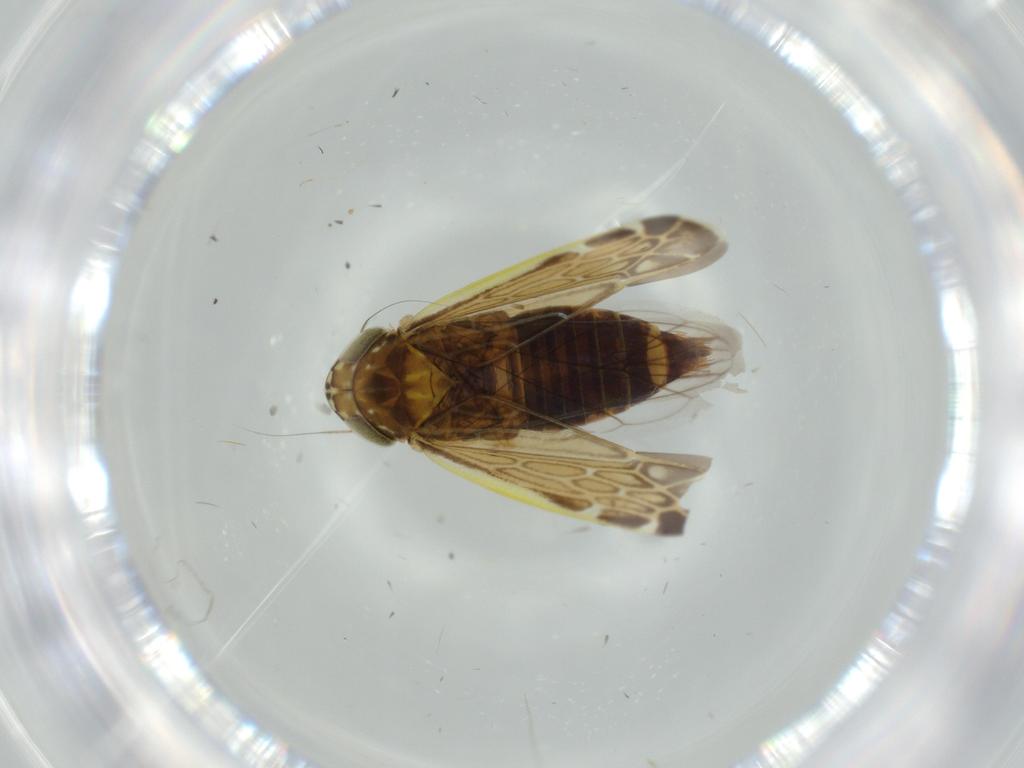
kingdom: Animalia
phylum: Arthropoda
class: Insecta
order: Hemiptera
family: Cicadellidae
